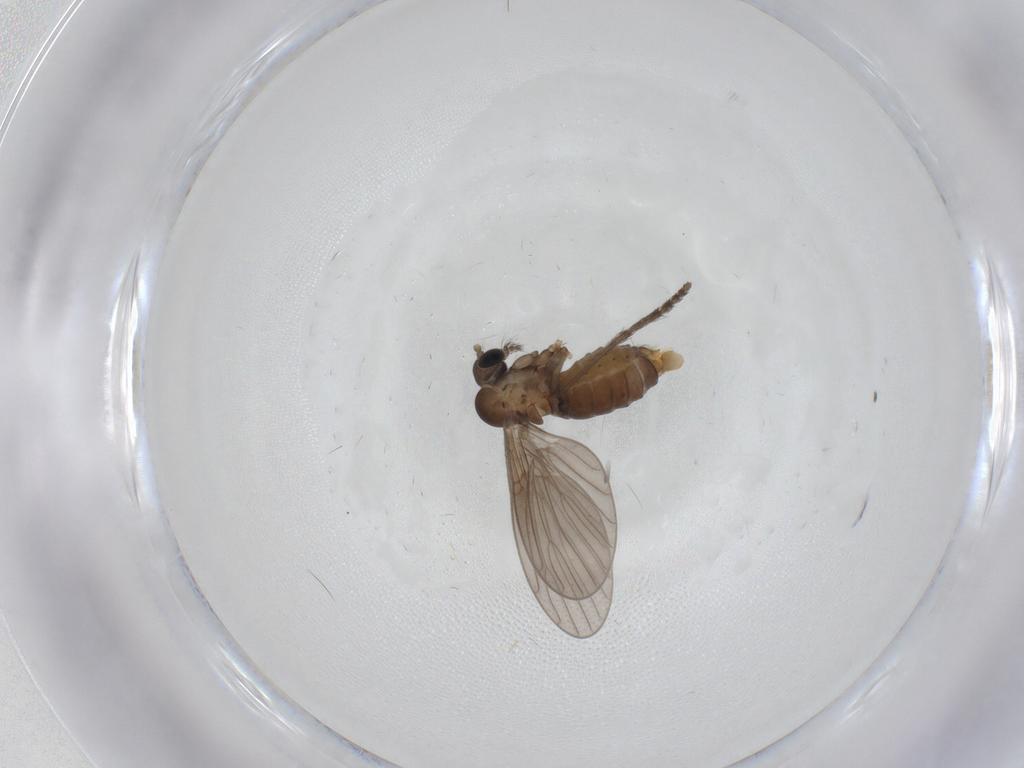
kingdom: Animalia
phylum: Arthropoda
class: Insecta
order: Diptera
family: Psychodidae
